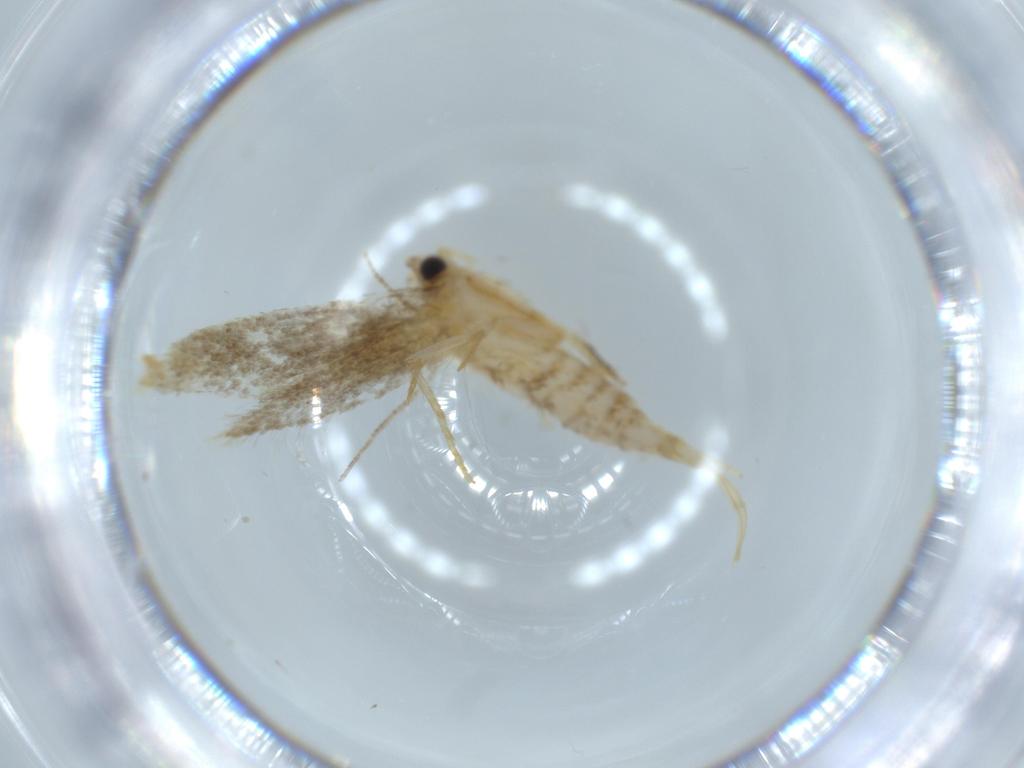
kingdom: Animalia
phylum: Arthropoda
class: Insecta
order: Lepidoptera
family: Tineidae
